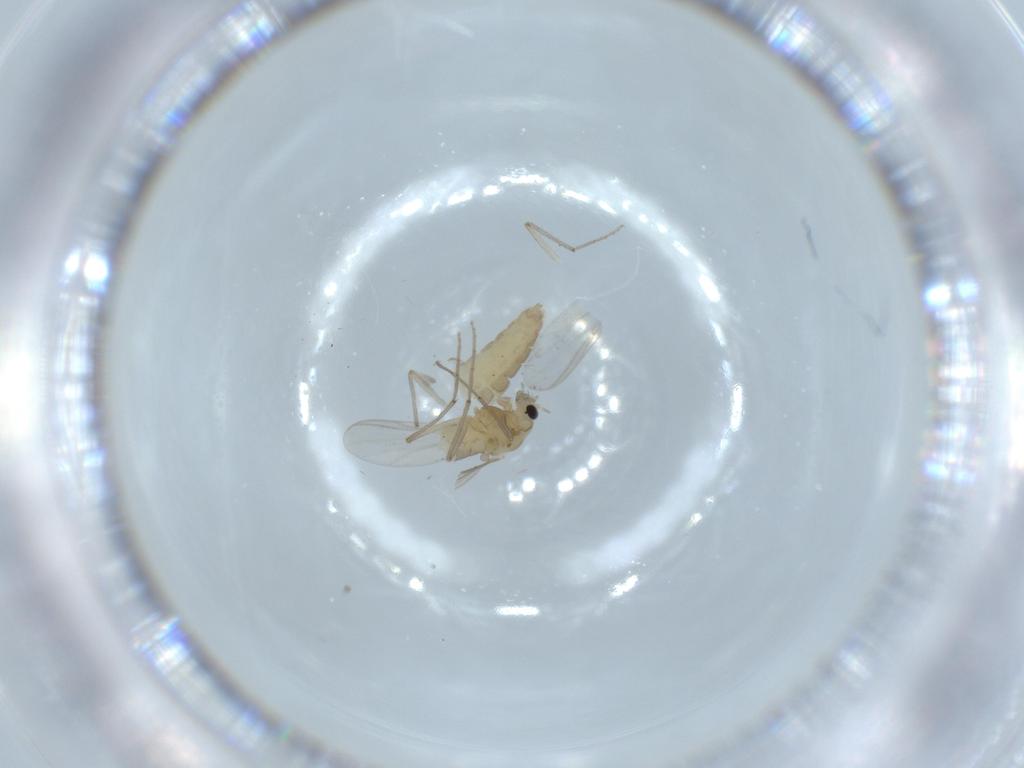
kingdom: Animalia
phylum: Arthropoda
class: Insecta
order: Diptera
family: Chironomidae
